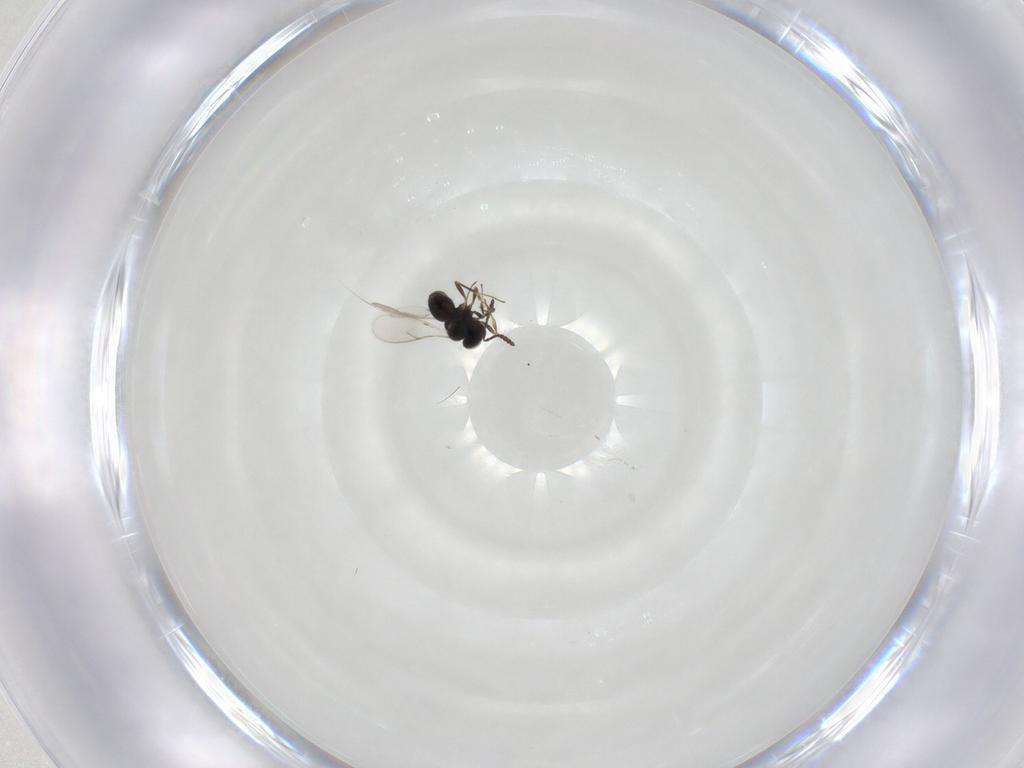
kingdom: Animalia
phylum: Arthropoda
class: Insecta
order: Hymenoptera
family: Scelionidae
